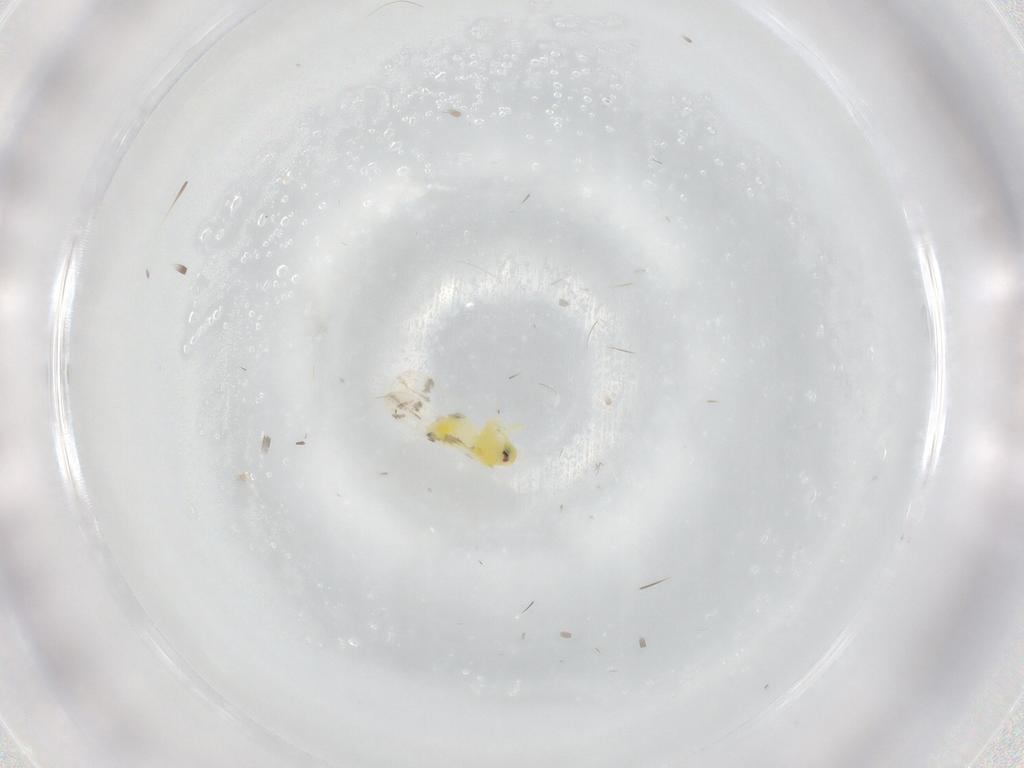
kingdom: Animalia
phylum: Arthropoda
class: Insecta
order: Hemiptera
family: Aleyrodidae
